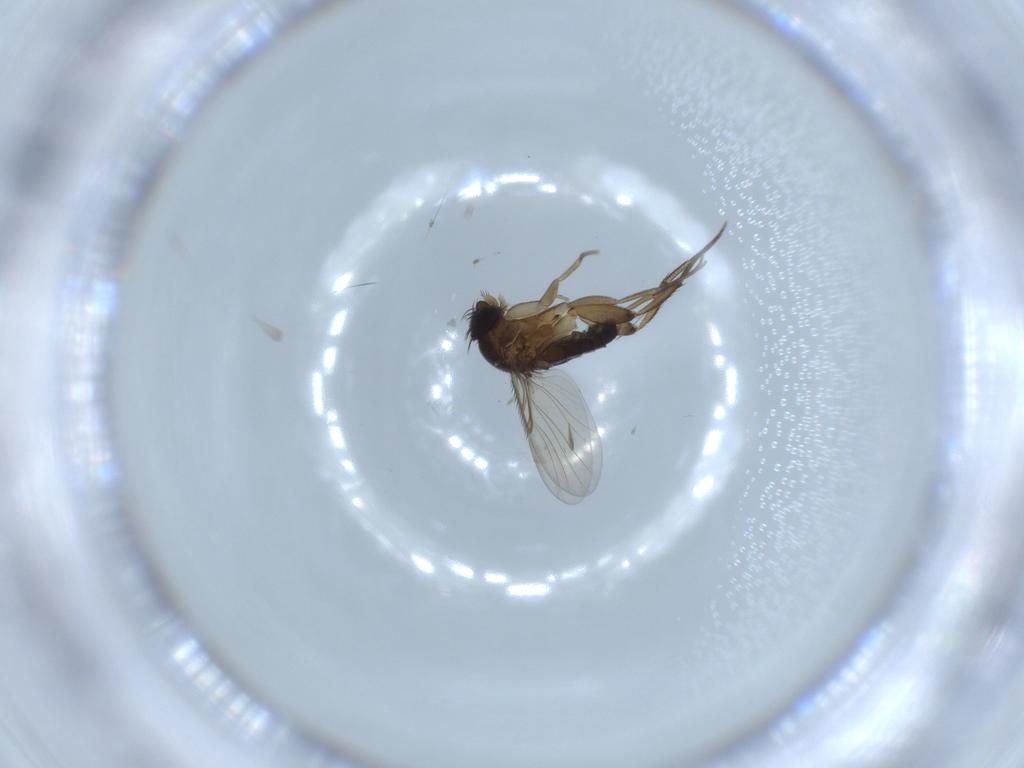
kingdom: Animalia
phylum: Arthropoda
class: Insecta
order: Diptera
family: Phoridae
